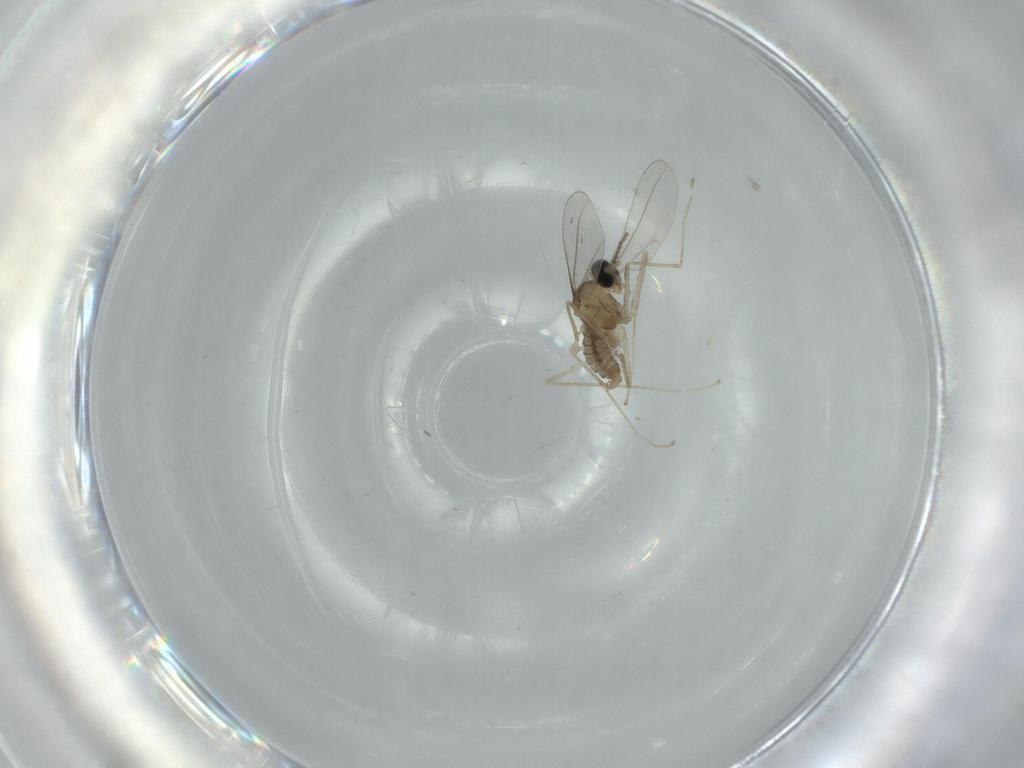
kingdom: Animalia
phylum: Arthropoda
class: Insecta
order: Diptera
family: Cecidomyiidae
